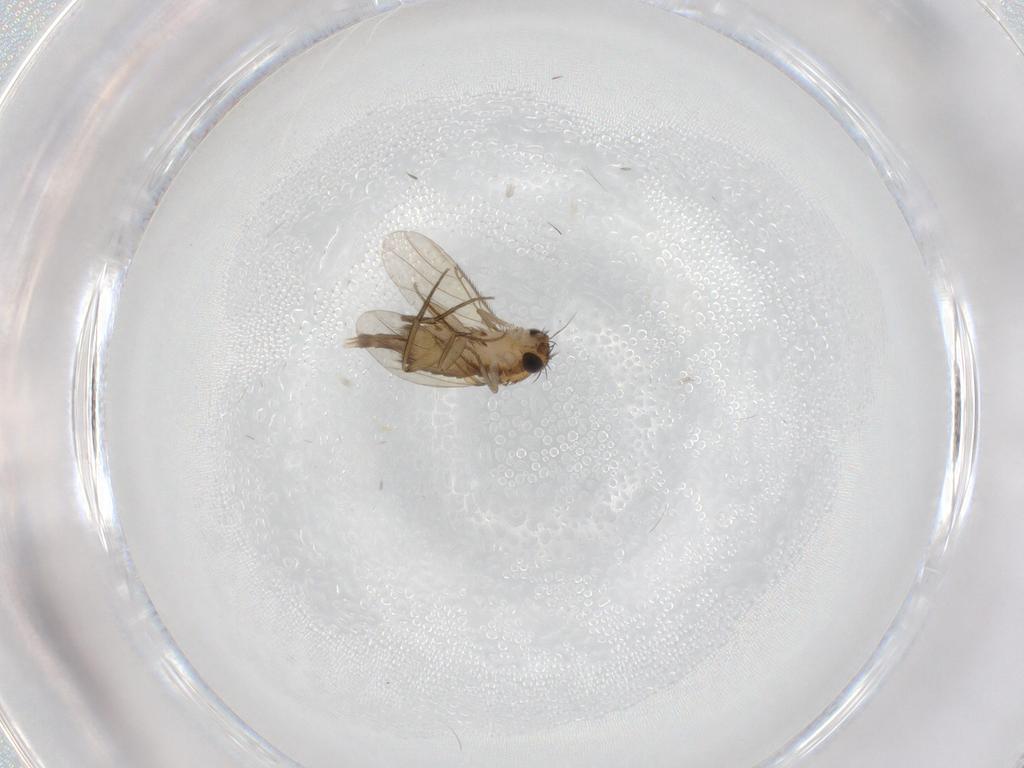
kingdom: Animalia
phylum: Arthropoda
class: Insecta
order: Diptera
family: Phoridae
